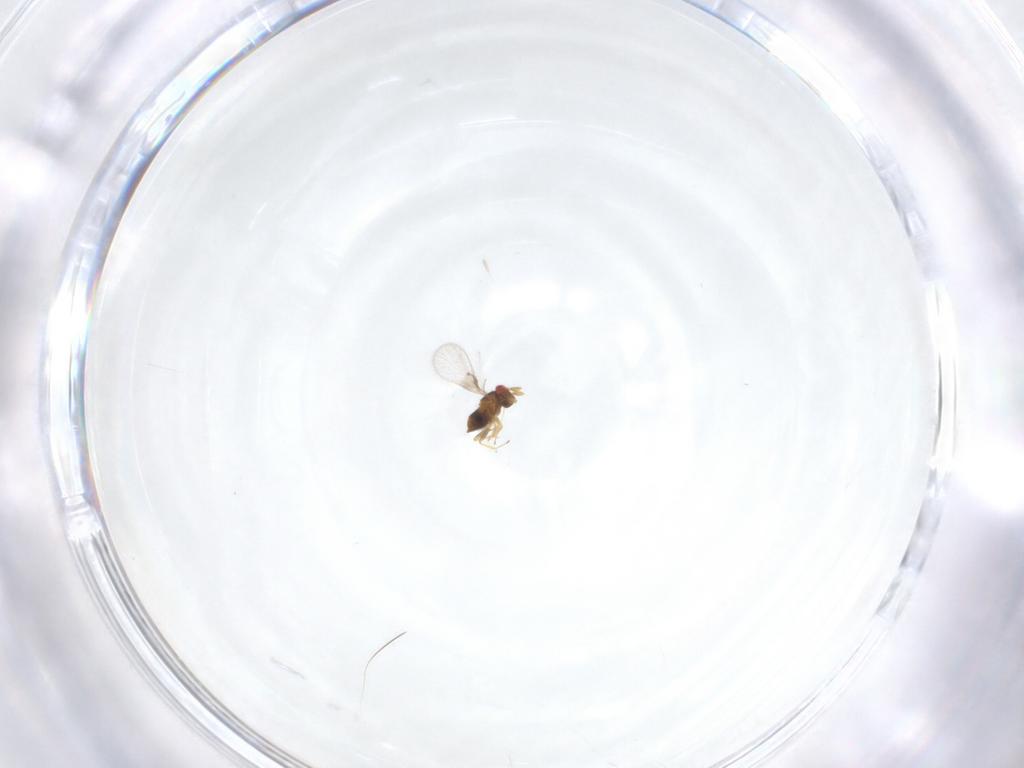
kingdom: Animalia
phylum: Arthropoda
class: Insecta
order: Hymenoptera
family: Trichogrammatidae
